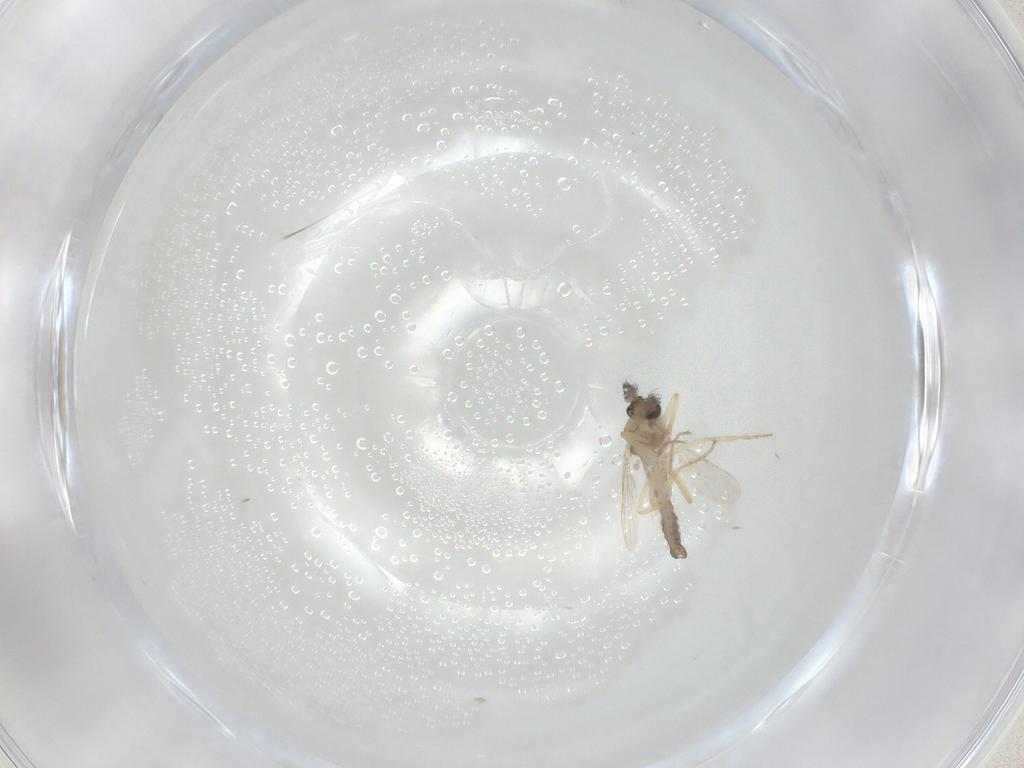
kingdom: Animalia
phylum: Arthropoda
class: Insecta
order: Diptera
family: Ceratopogonidae
